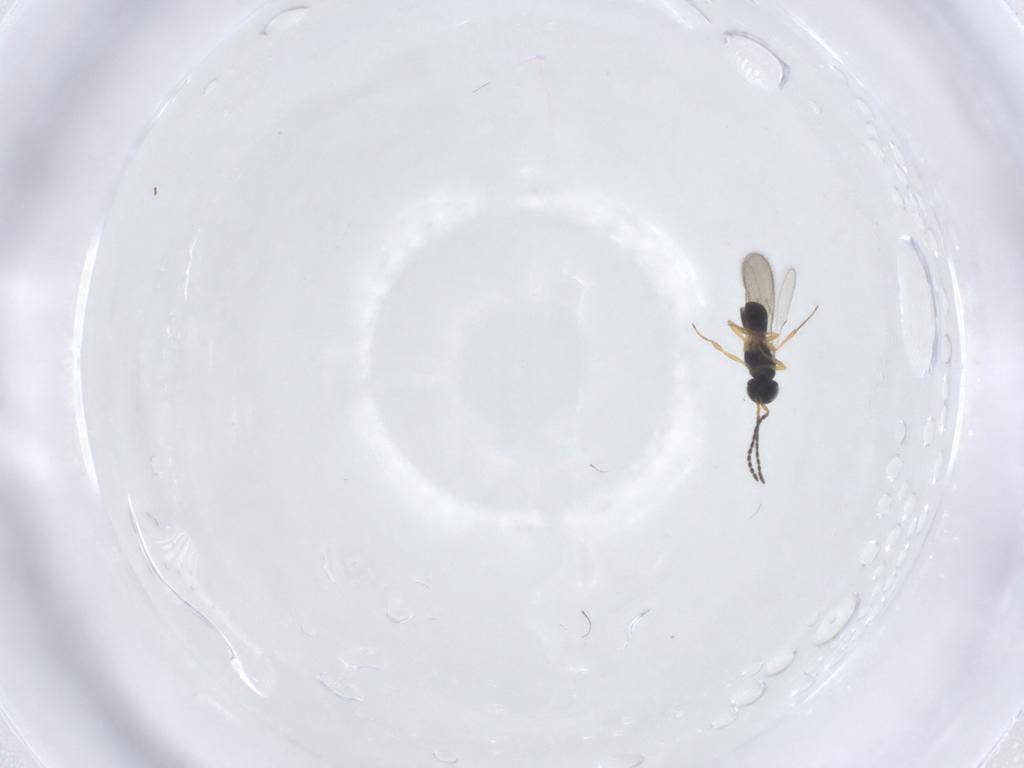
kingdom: Animalia
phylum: Arthropoda
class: Insecta
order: Hymenoptera
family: Scelionidae
